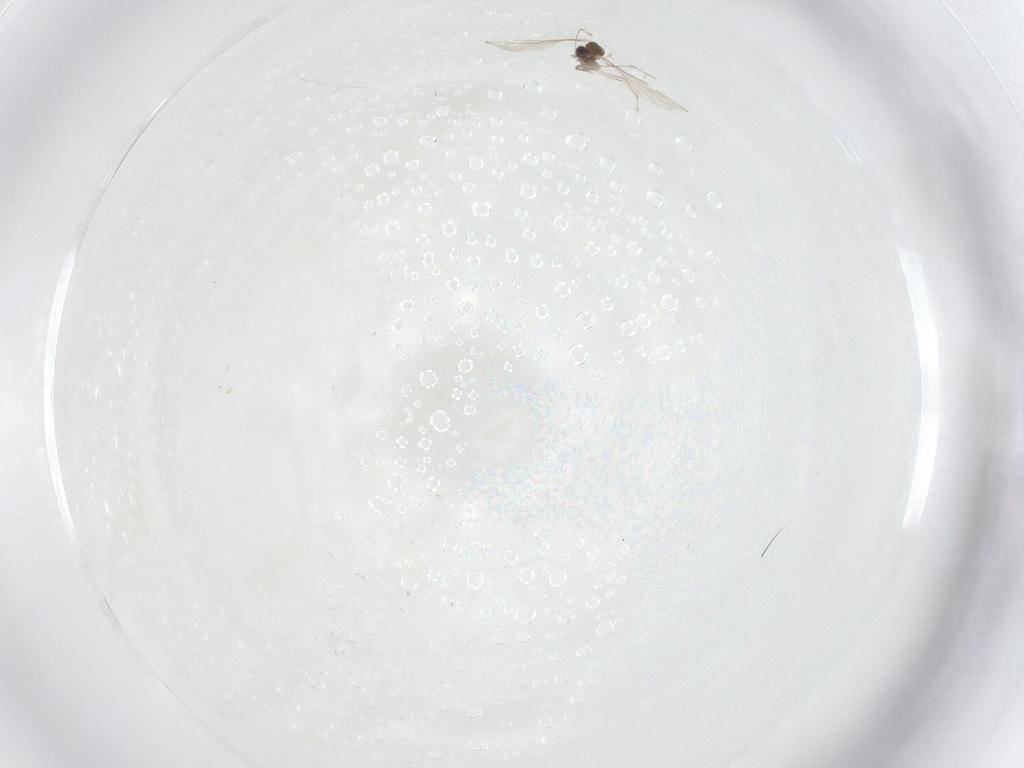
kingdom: Animalia
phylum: Arthropoda
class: Insecta
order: Diptera
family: Cecidomyiidae
